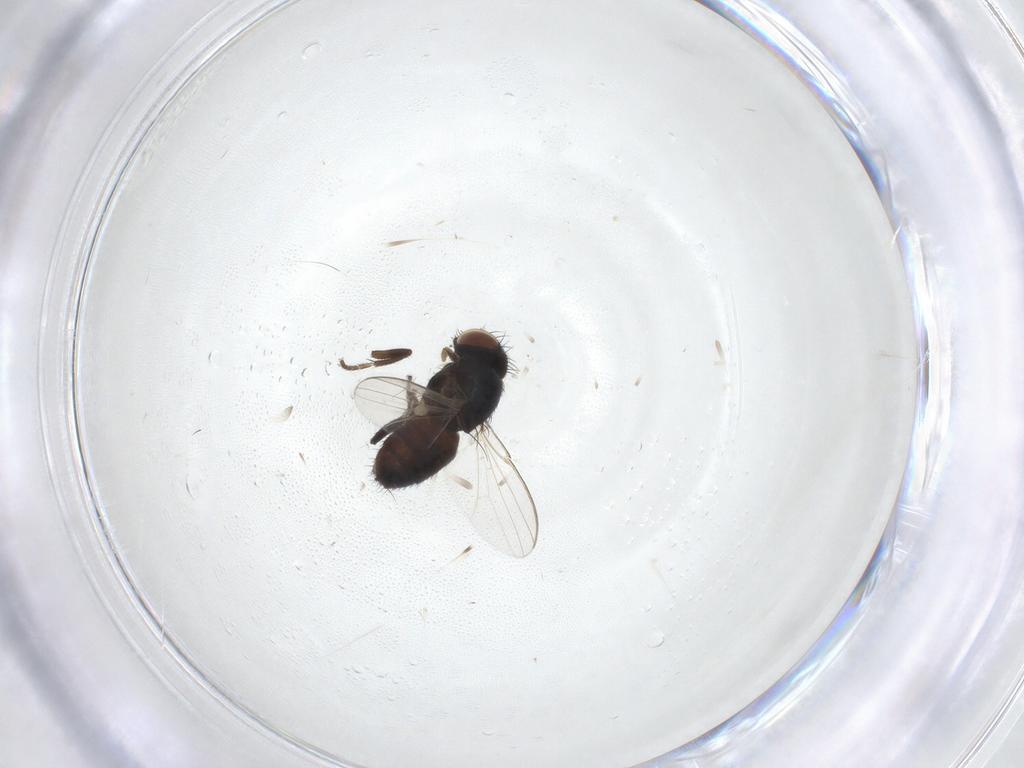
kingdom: Animalia
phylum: Arthropoda
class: Insecta
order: Diptera
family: Milichiidae
